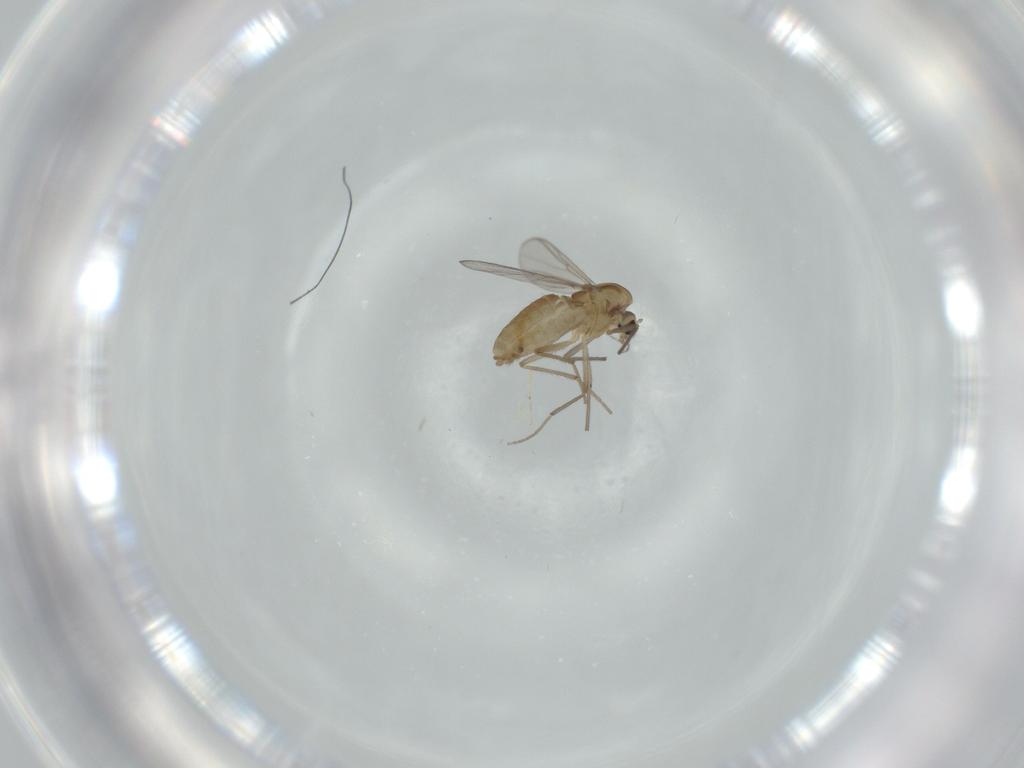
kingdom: Animalia
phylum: Arthropoda
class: Insecta
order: Diptera
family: Chironomidae
